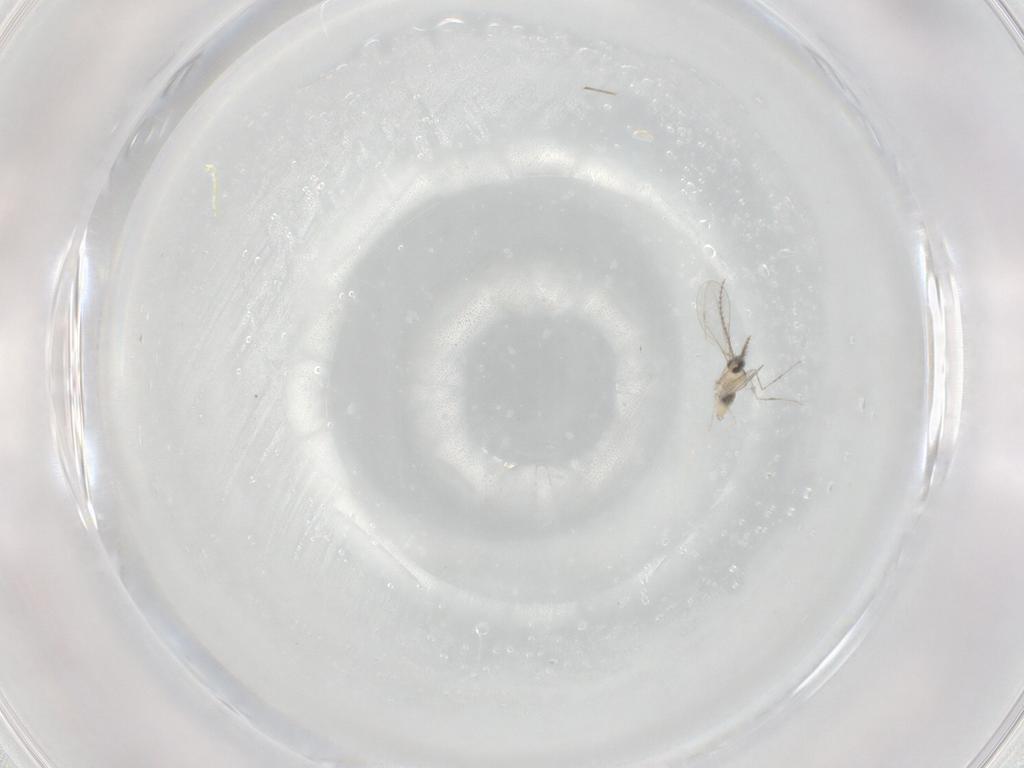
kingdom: Animalia
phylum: Arthropoda
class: Insecta
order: Diptera
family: Cecidomyiidae
